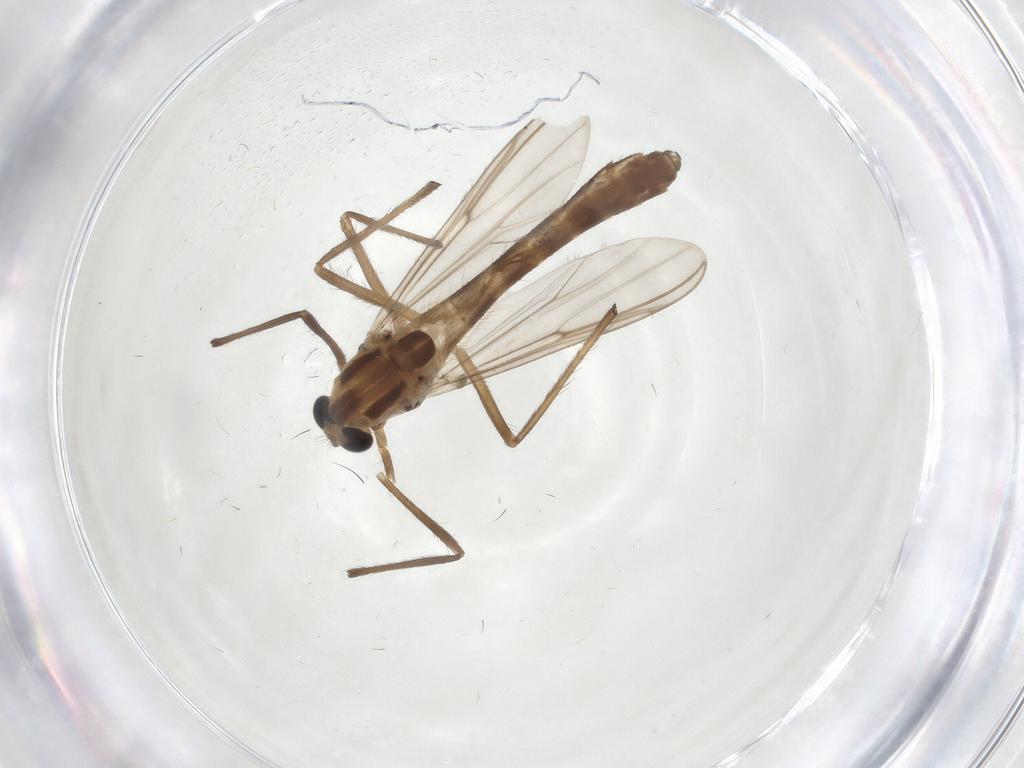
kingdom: Animalia
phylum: Arthropoda
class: Insecta
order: Diptera
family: Chironomidae
